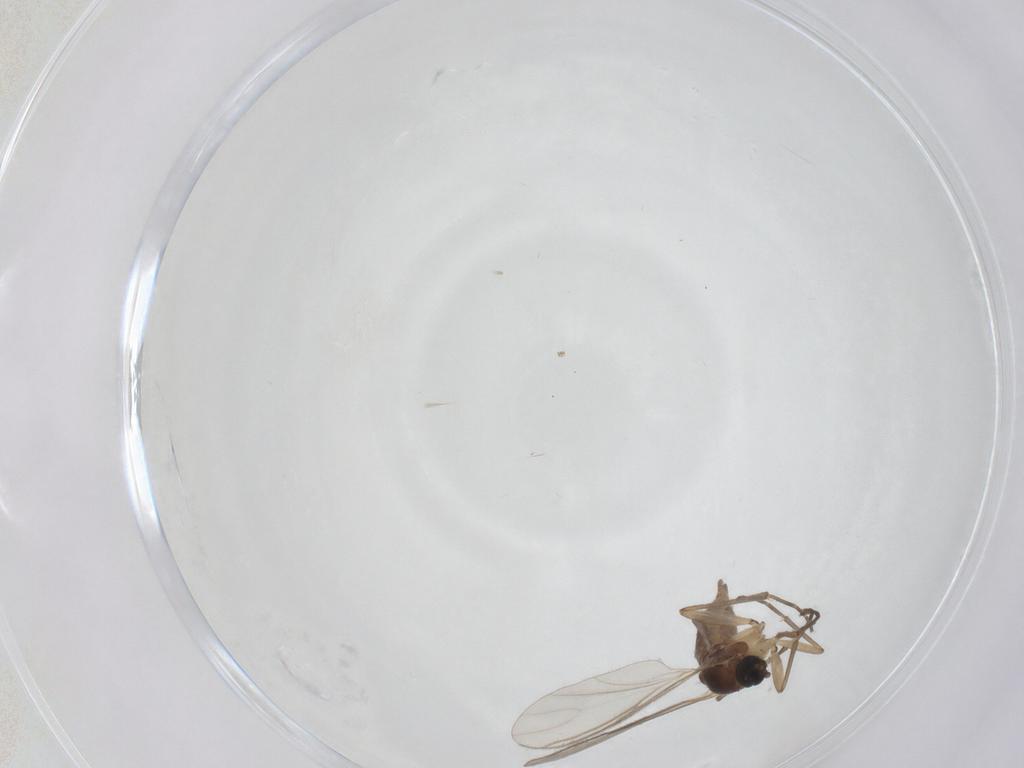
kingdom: Animalia
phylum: Arthropoda
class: Insecta
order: Diptera
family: Sciaridae
